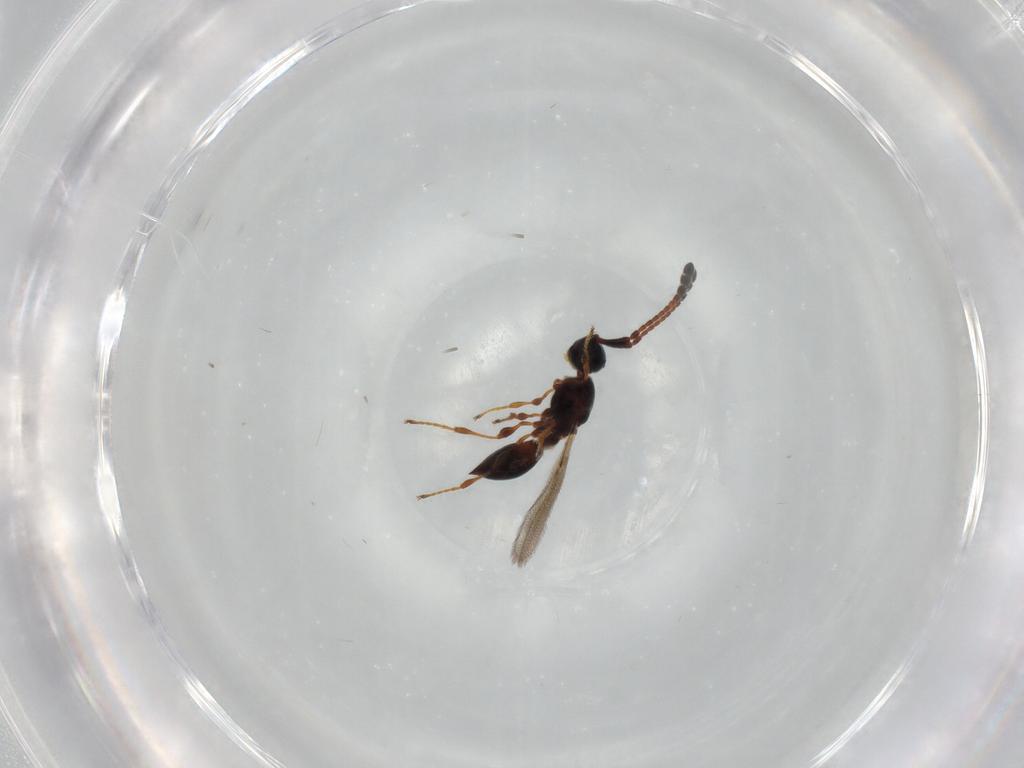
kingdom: Animalia
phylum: Arthropoda
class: Insecta
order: Hymenoptera
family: Diapriidae
